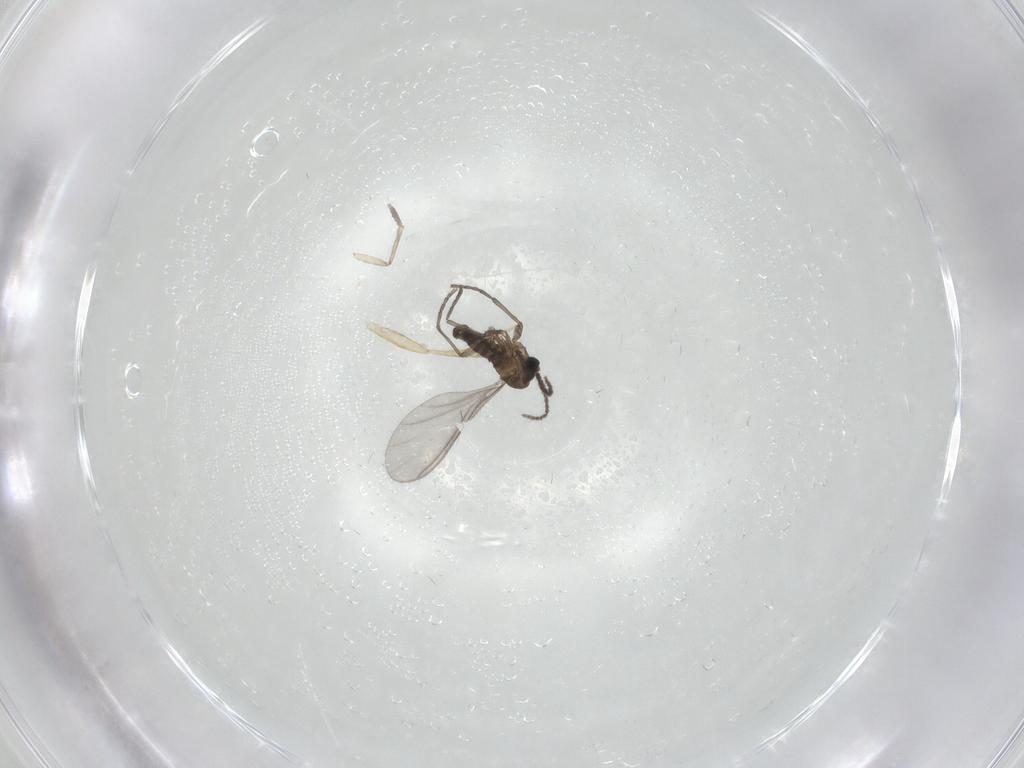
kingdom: Animalia
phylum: Arthropoda
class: Insecta
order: Diptera
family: Sciaridae
